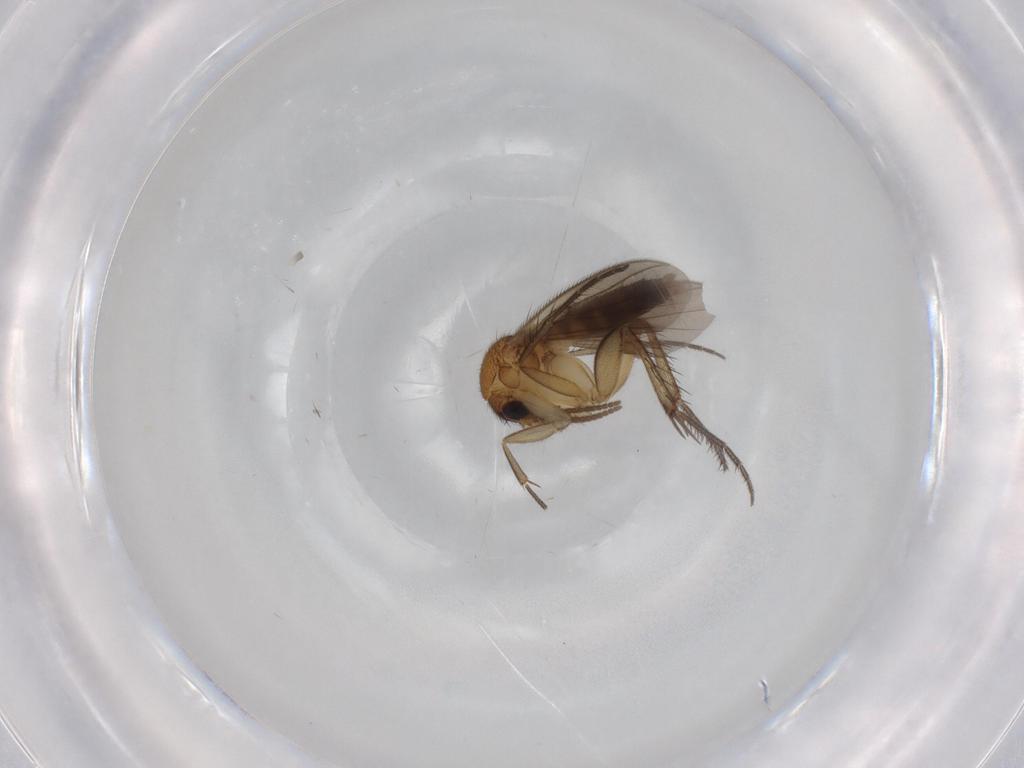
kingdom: Animalia
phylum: Arthropoda
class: Insecta
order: Diptera
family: Mycetophilidae
